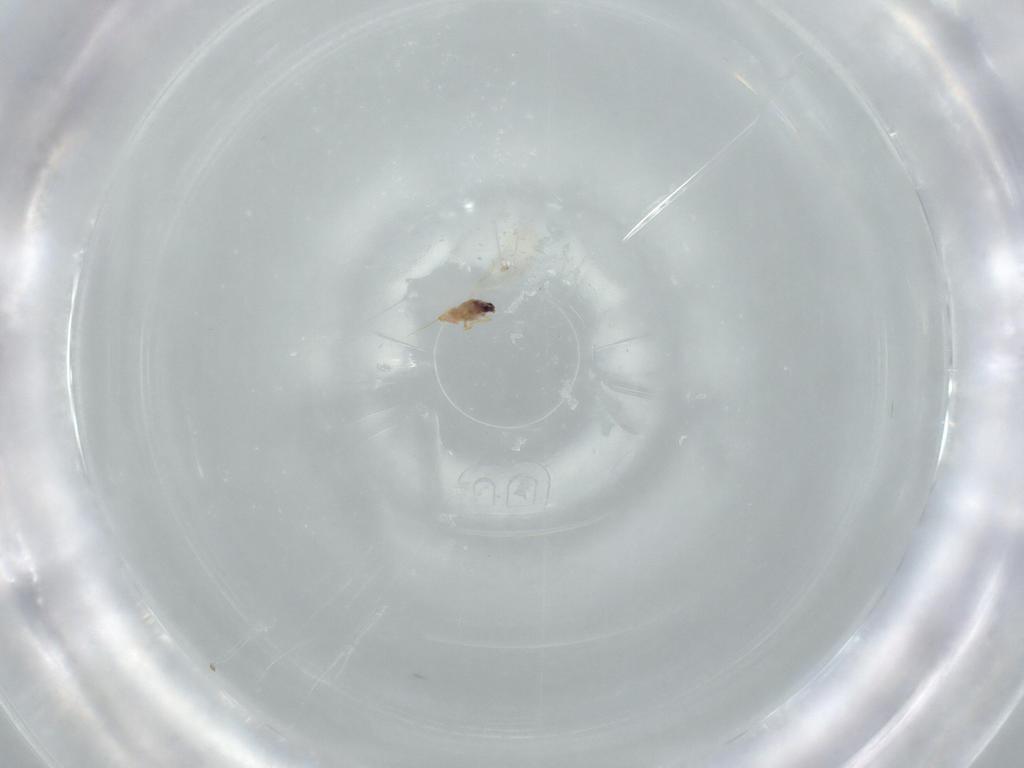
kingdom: Animalia
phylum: Arthropoda
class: Insecta
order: Hemiptera
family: Diaspididae
